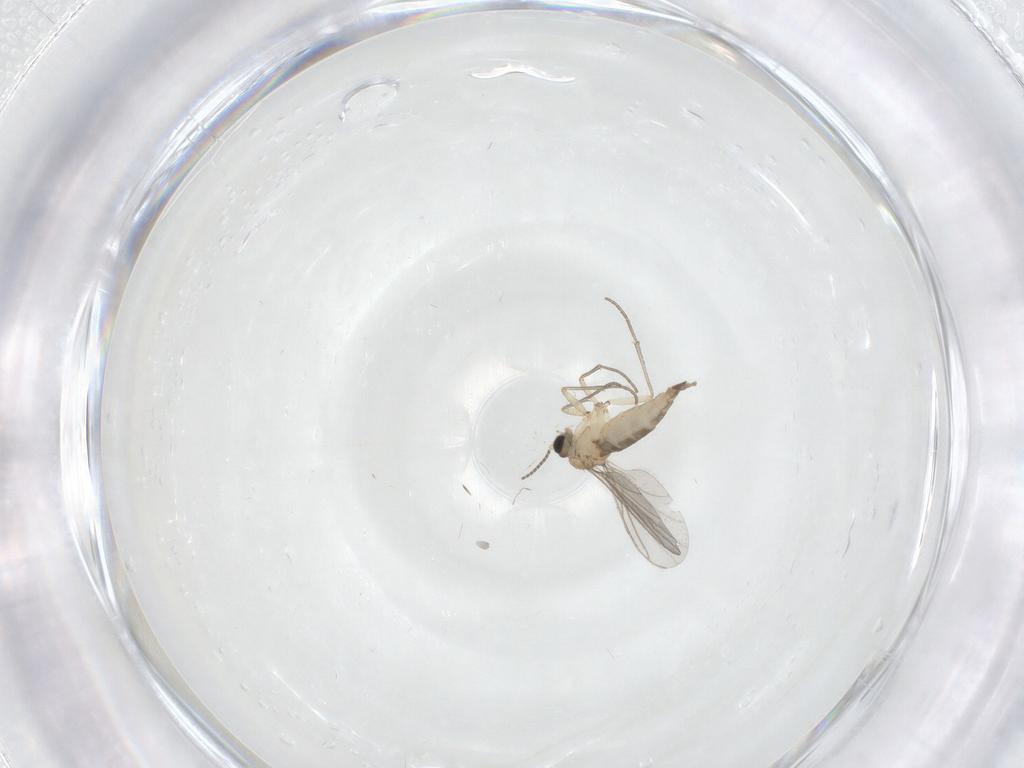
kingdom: Animalia
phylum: Arthropoda
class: Insecta
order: Diptera
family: Sciaridae
